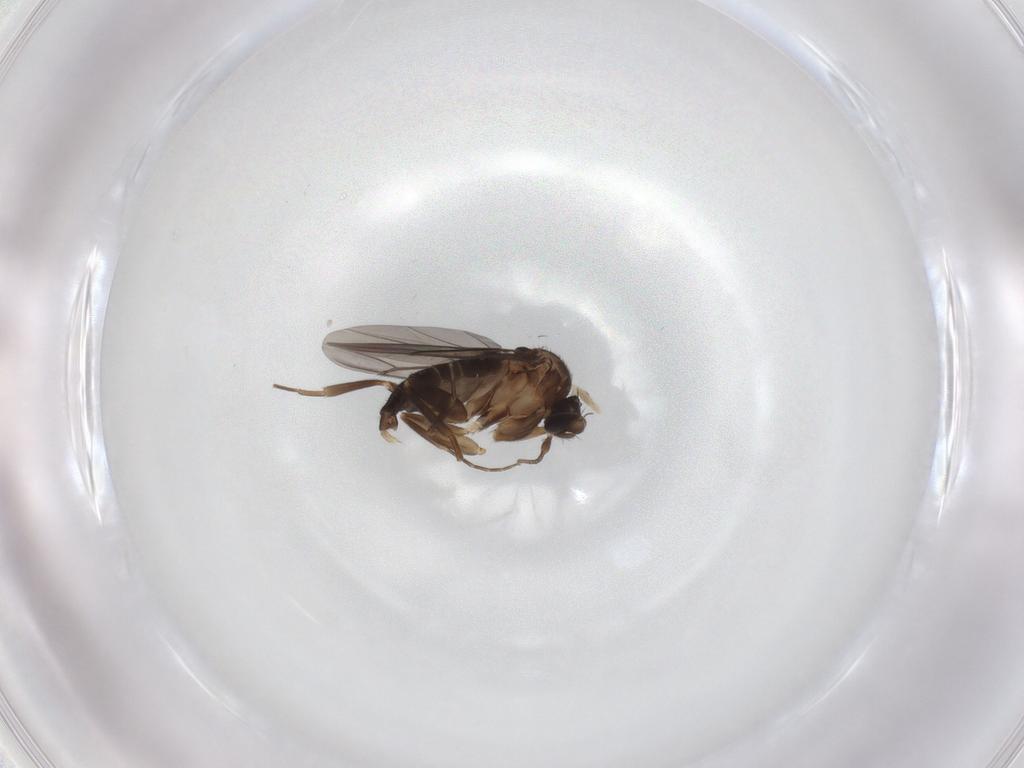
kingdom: Animalia
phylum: Arthropoda
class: Insecta
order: Diptera
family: Cecidomyiidae
